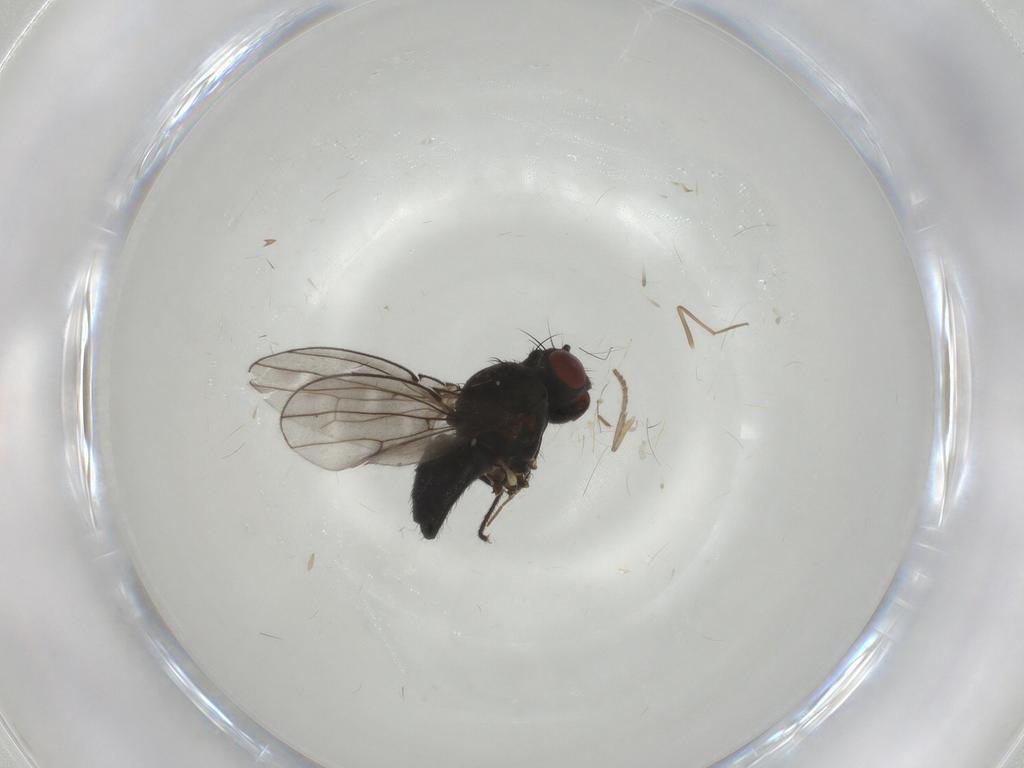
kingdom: Animalia
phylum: Arthropoda
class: Insecta
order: Diptera
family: Ephydridae
